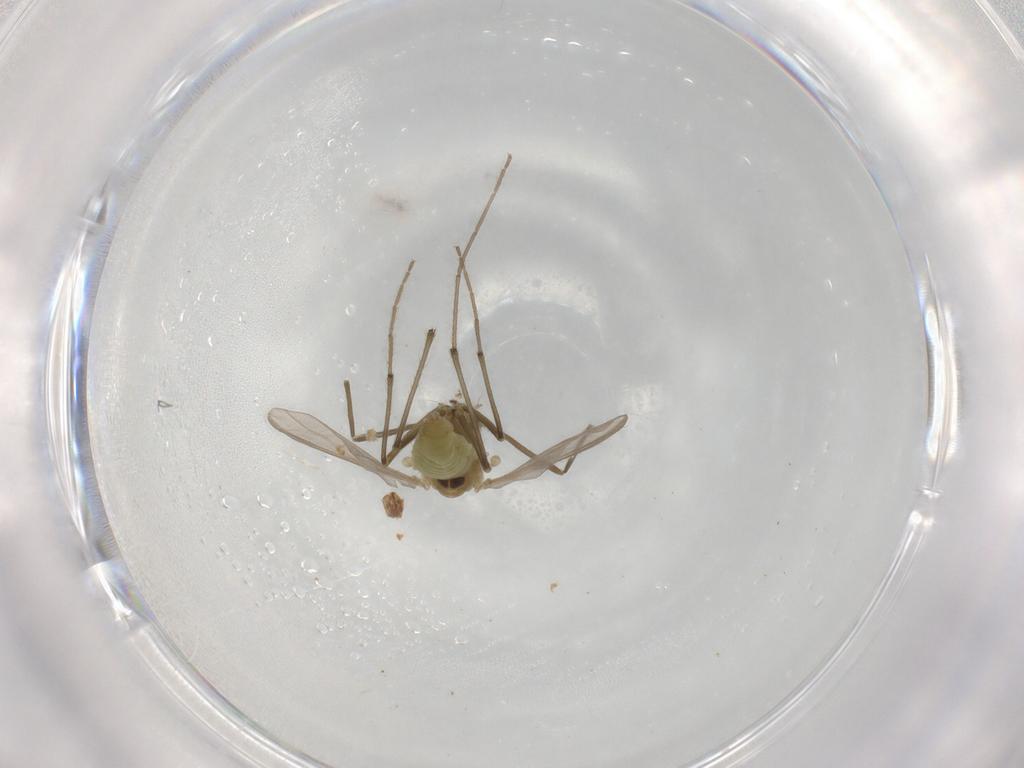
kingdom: Animalia
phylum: Arthropoda
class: Insecta
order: Diptera
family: Chironomidae
